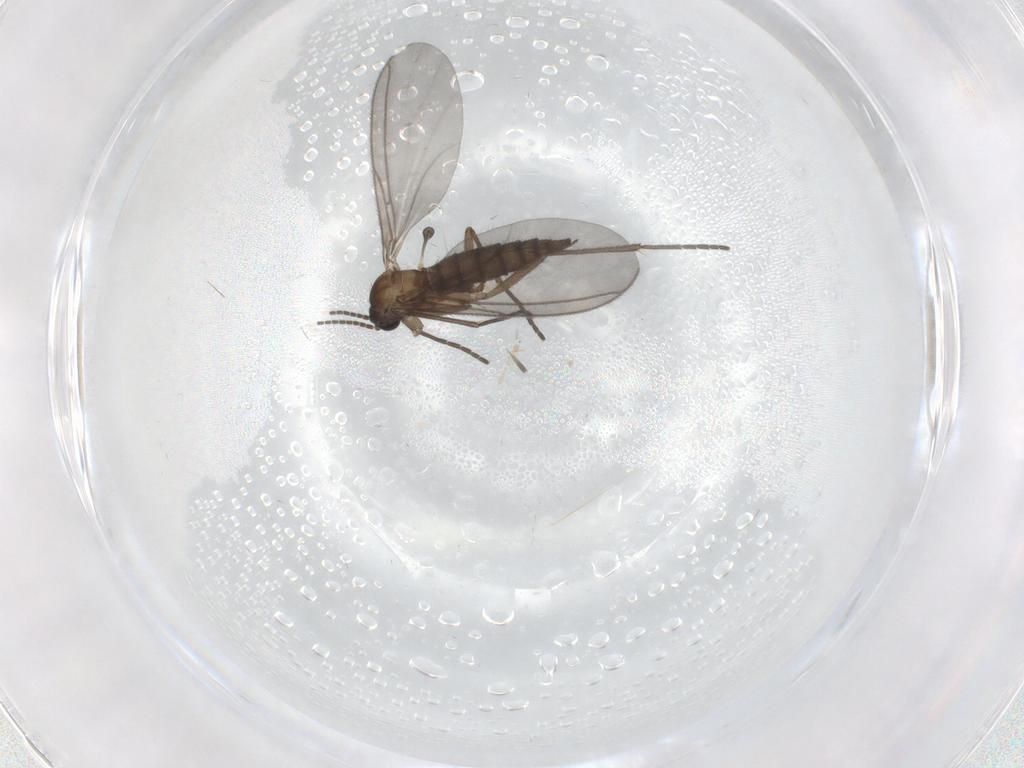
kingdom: Animalia
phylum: Arthropoda
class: Insecta
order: Diptera
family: Sciaridae
